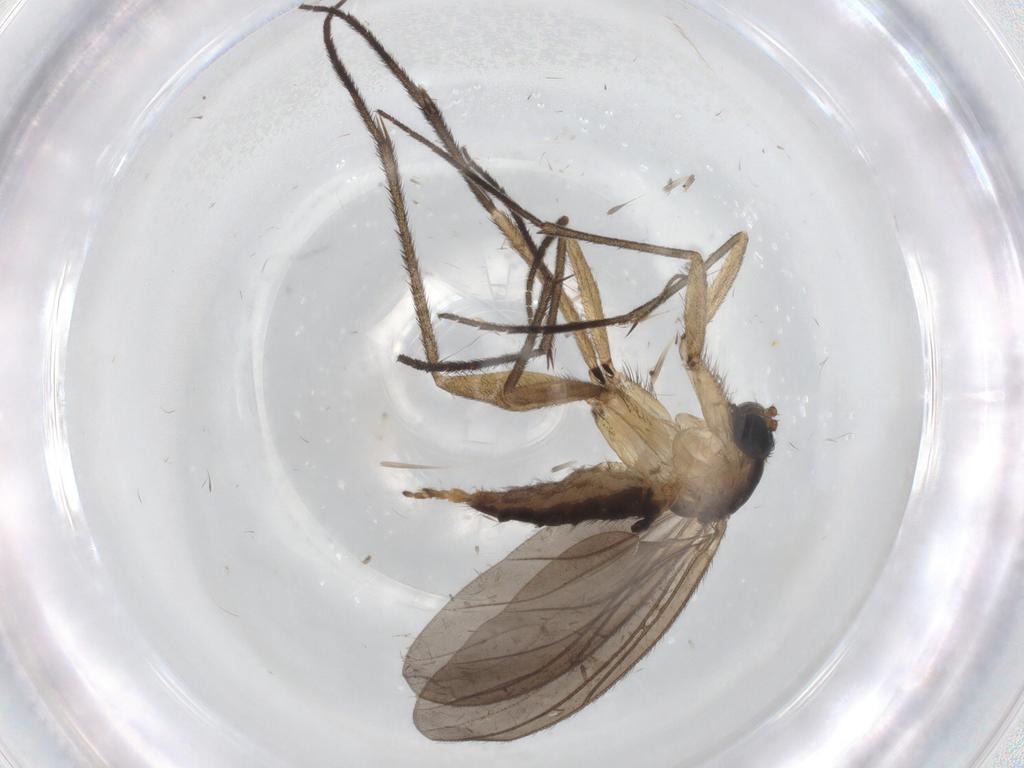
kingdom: Animalia
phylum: Arthropoda
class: Insecta
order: Diptera
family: Sciaridae
